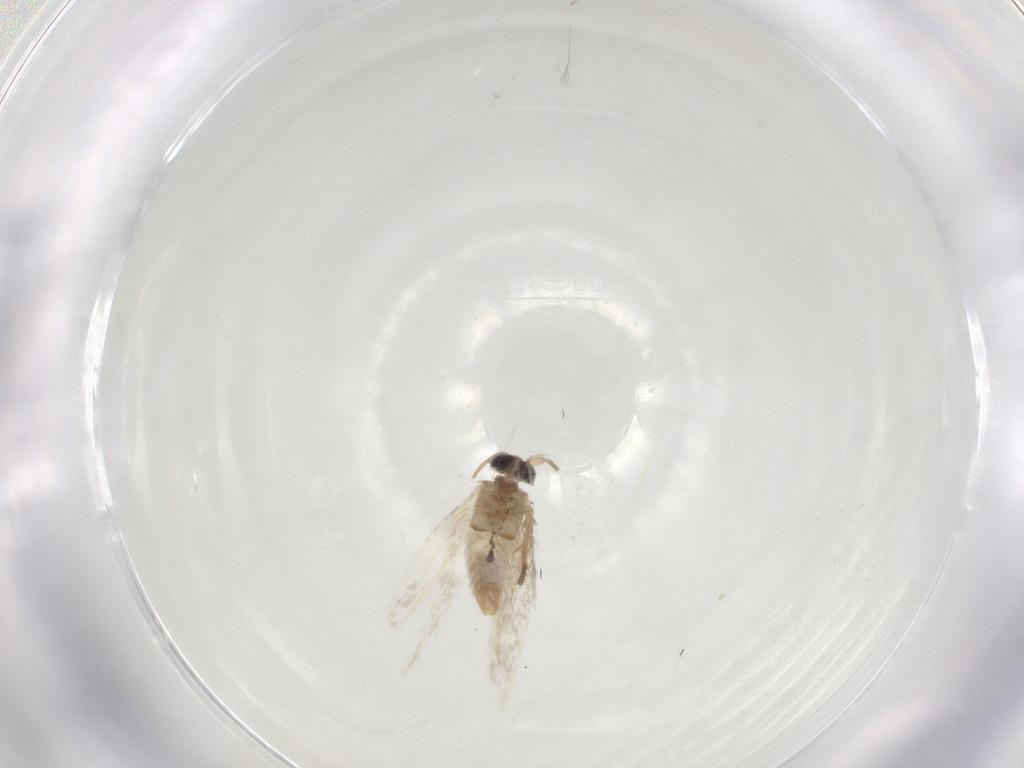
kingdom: Animalia
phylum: Arthropoda
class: Insecta
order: Lepidoptera
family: Nepticulidae
